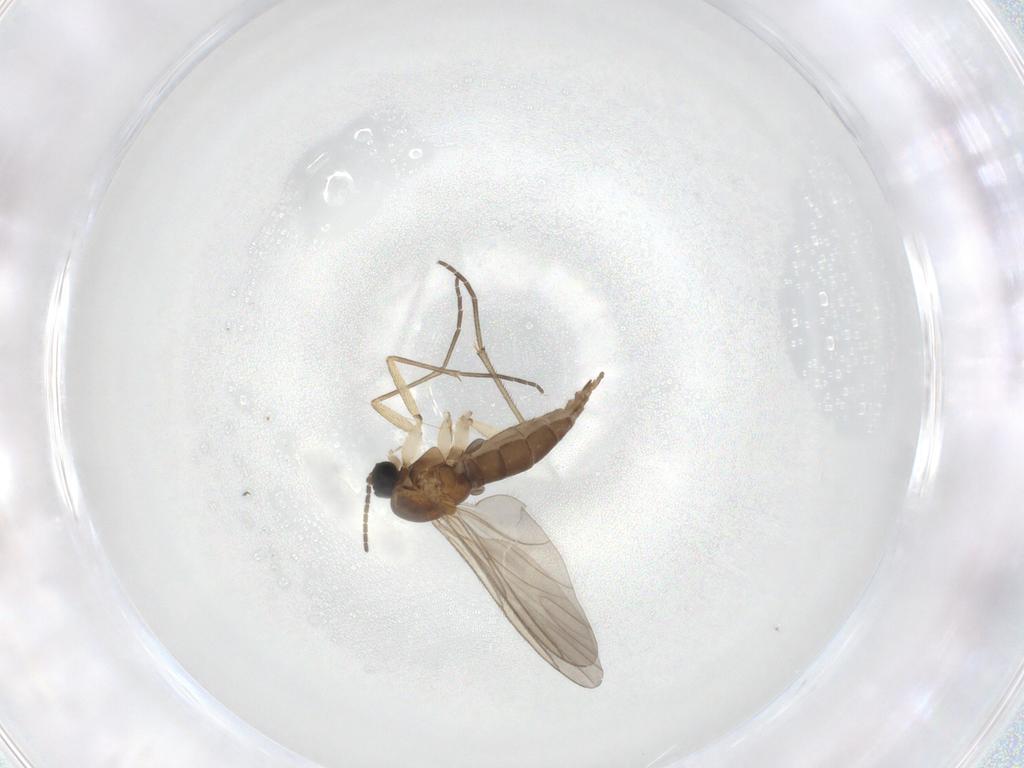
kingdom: Animalia
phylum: Arthropoda
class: Insecta
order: Diptera
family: Sciaridae
